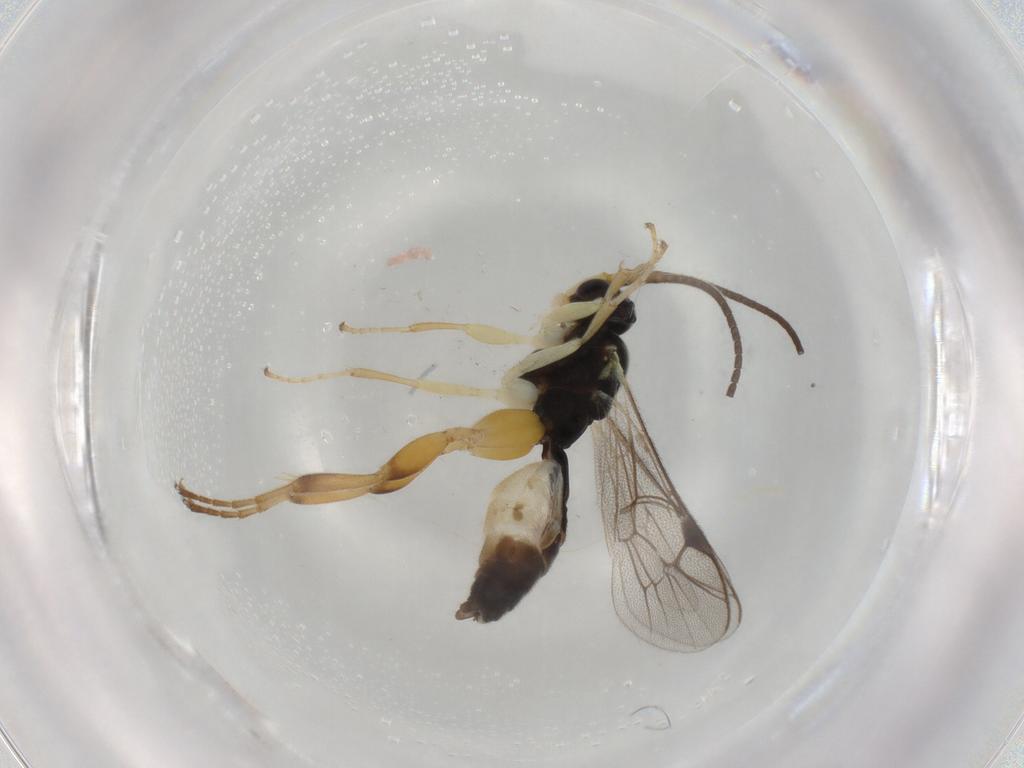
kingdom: Animalia
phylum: Arthropoda
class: Insecta
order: Hymenoptera
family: Ichneumonidae
